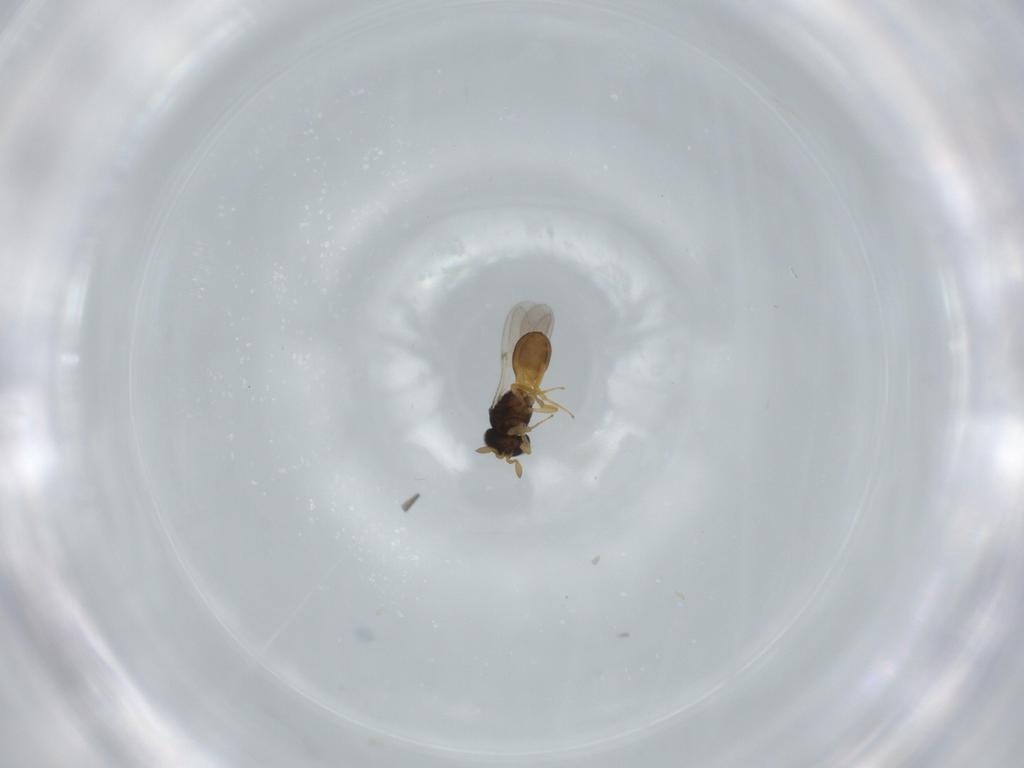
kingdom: Animalia
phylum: Arthropoda
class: Insecta
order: Hymenoptera
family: Scelionidae
